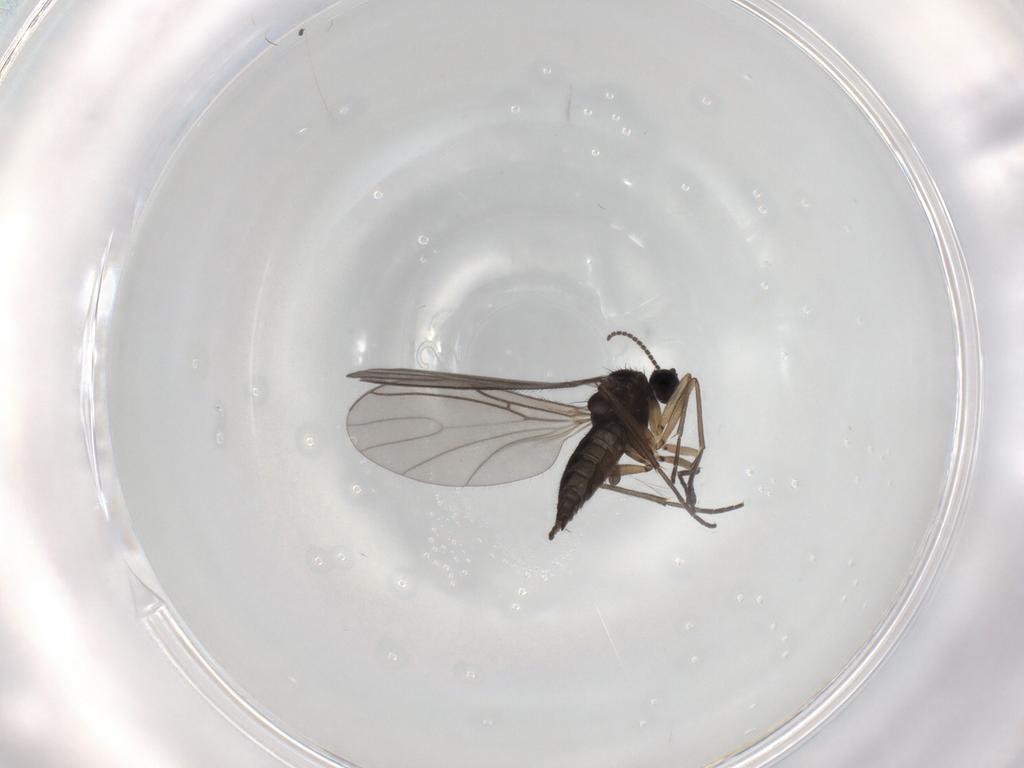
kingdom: Animalia
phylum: Arthropoda
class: Insecta
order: Diptera
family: Sciaridae
